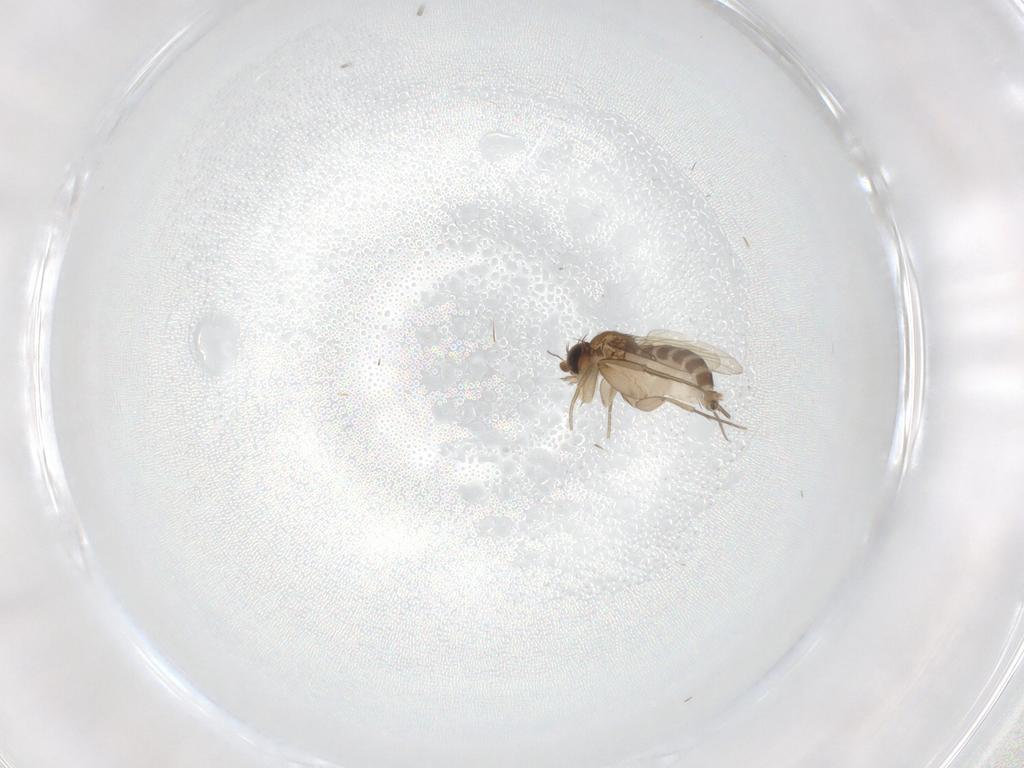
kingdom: Animalia
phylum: Arthropoda
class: Insecta
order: Diptera
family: Phoridae
